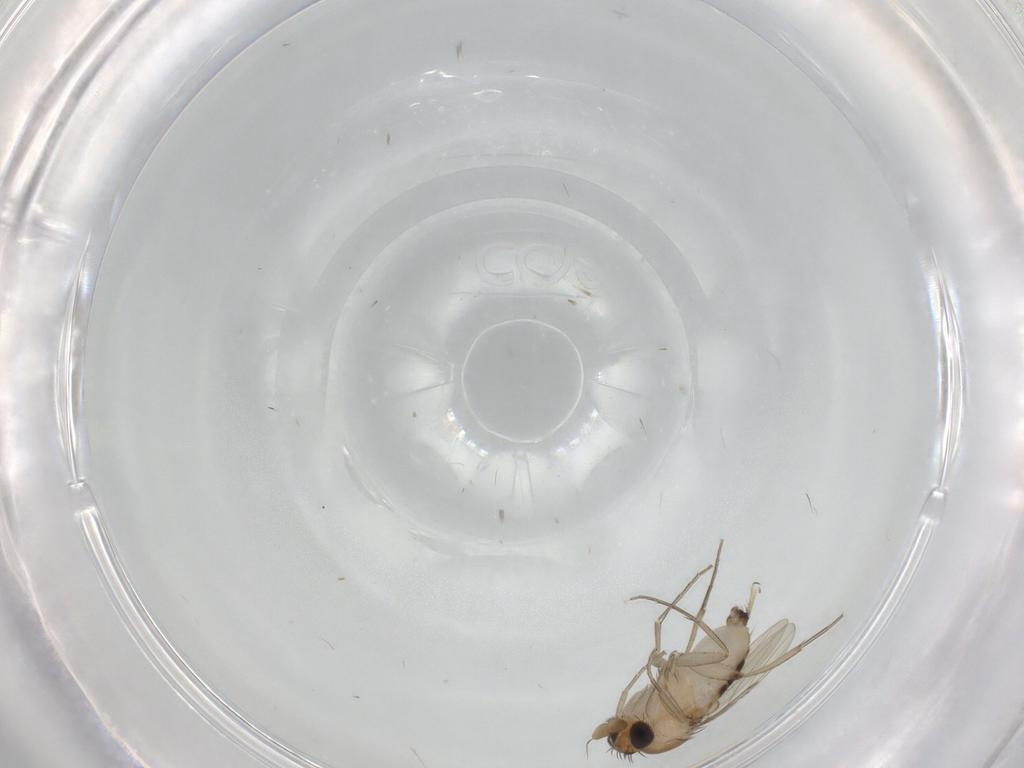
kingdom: Animalia
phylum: Arthropoda
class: Insecta
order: Diptera
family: Phoridae
